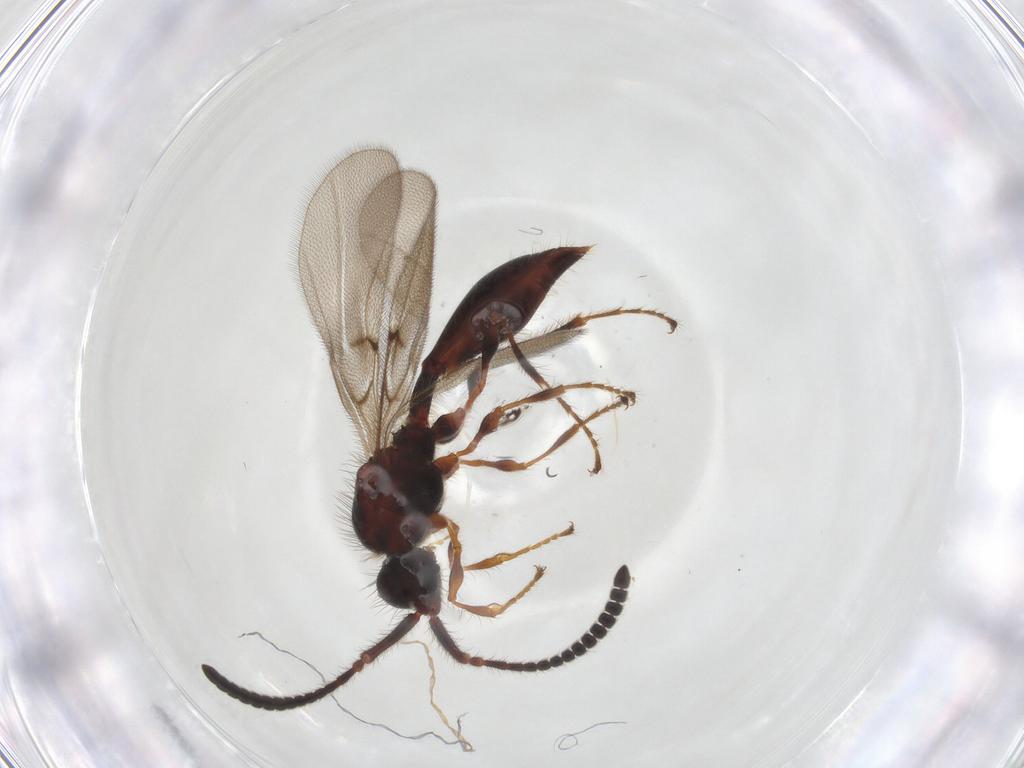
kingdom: Animalia
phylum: Arthropoda
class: Insecta
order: Hymenoptera
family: Diapriidae
